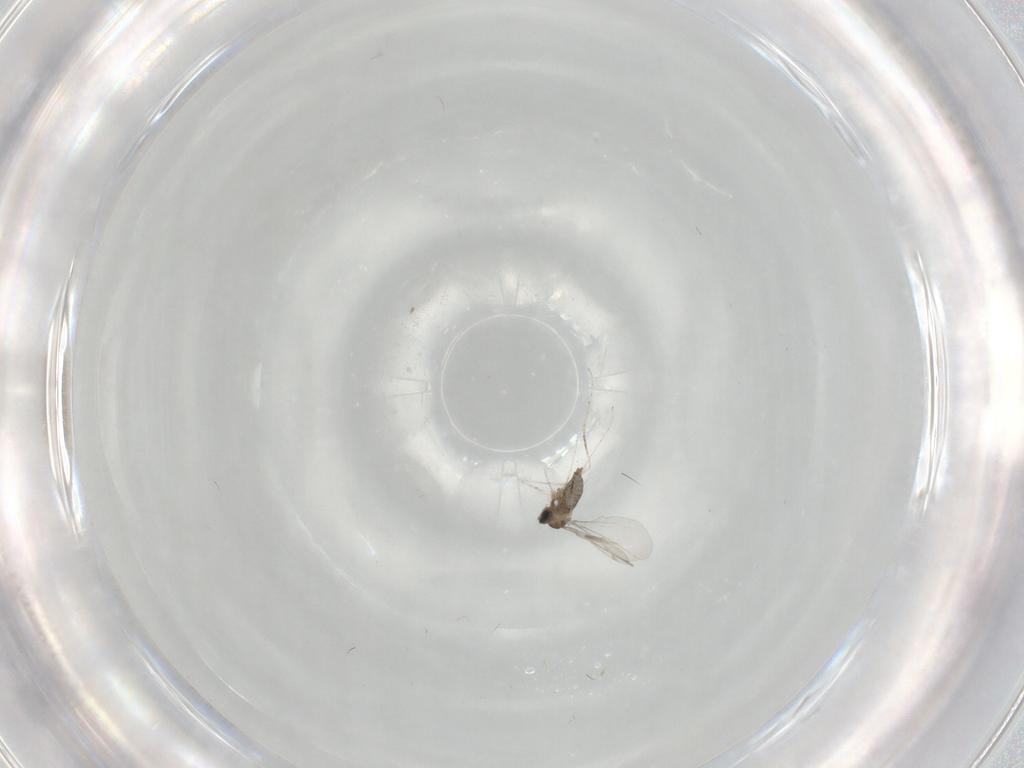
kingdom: Animalia
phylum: Arthropoda
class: Insecta
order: Diptera
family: Cecidomyiidae
